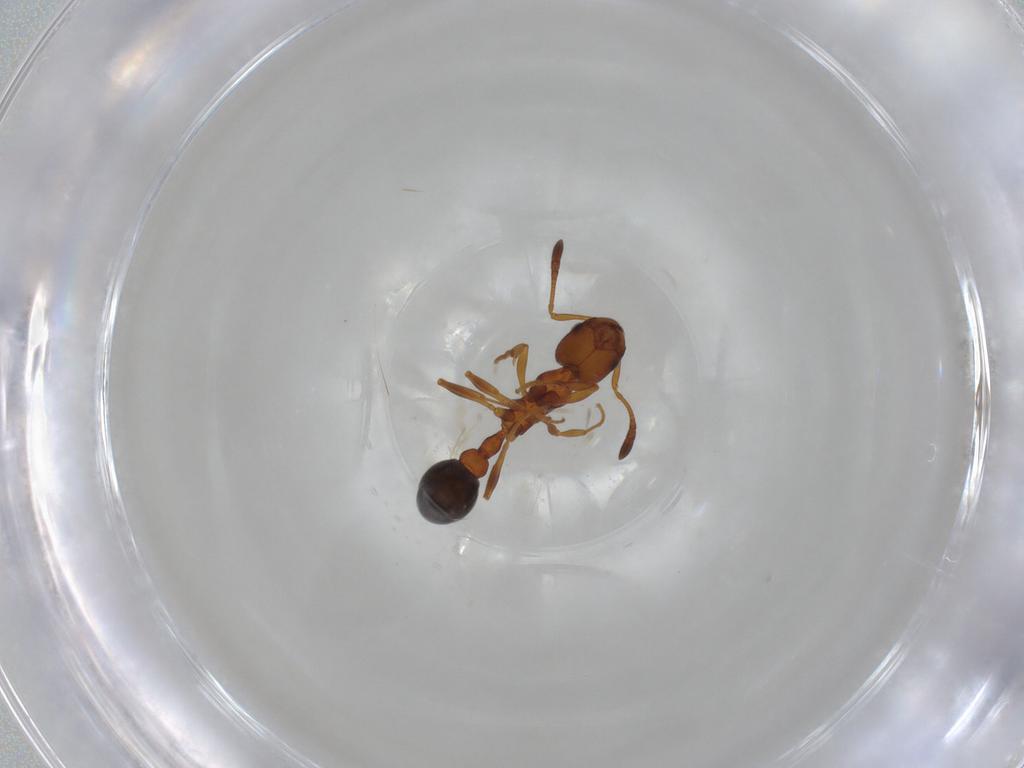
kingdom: Animalia
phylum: Arthropoda
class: Insecta
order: Hymenoptera
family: Formicidae
